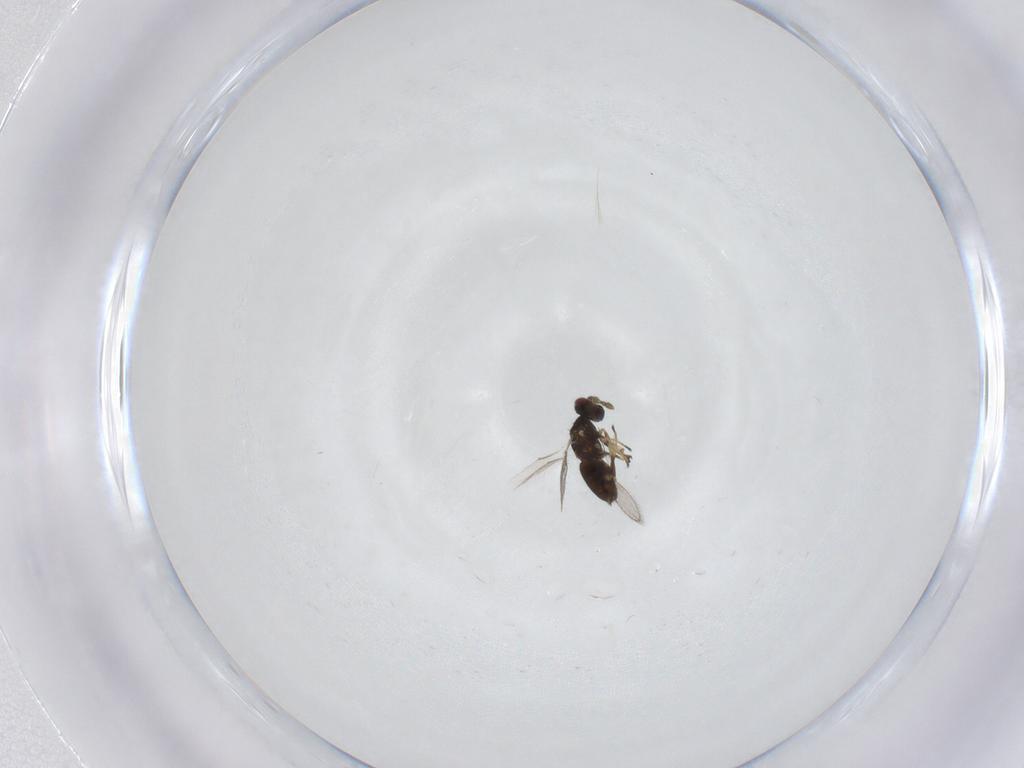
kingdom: Animalia
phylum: Arthropoda
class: Insecta
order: Hymenoptera
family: Eulophidae
